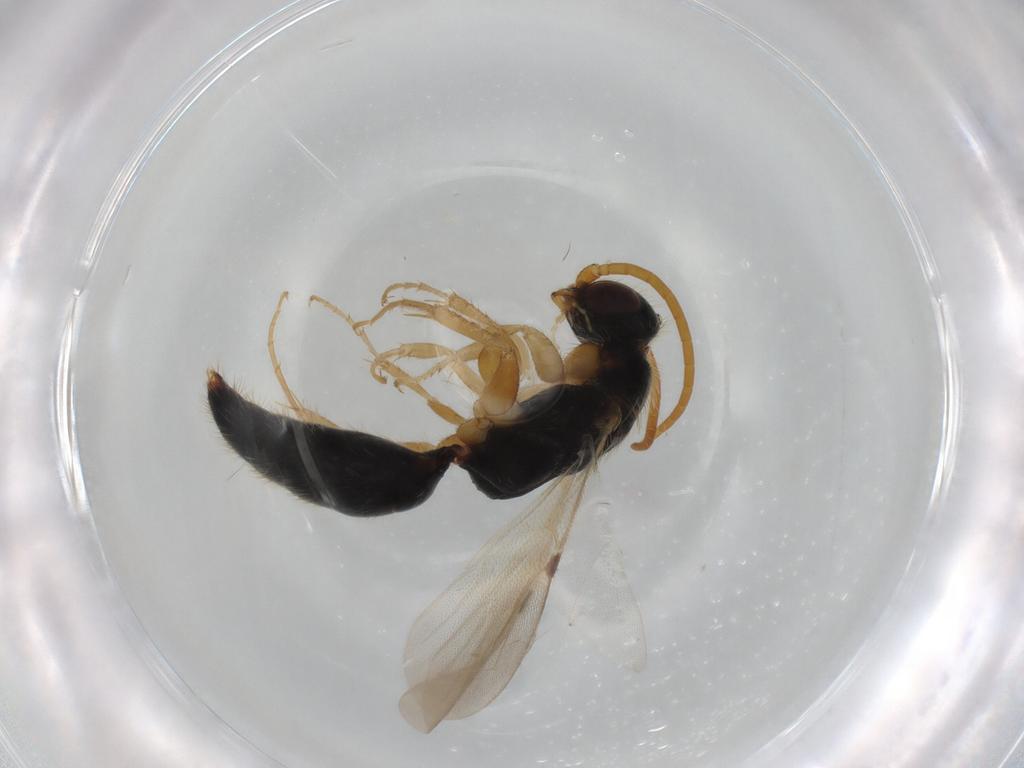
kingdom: Animalia
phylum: Arthropoda
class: Insecta
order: Hymenoptera
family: Bethylidae
